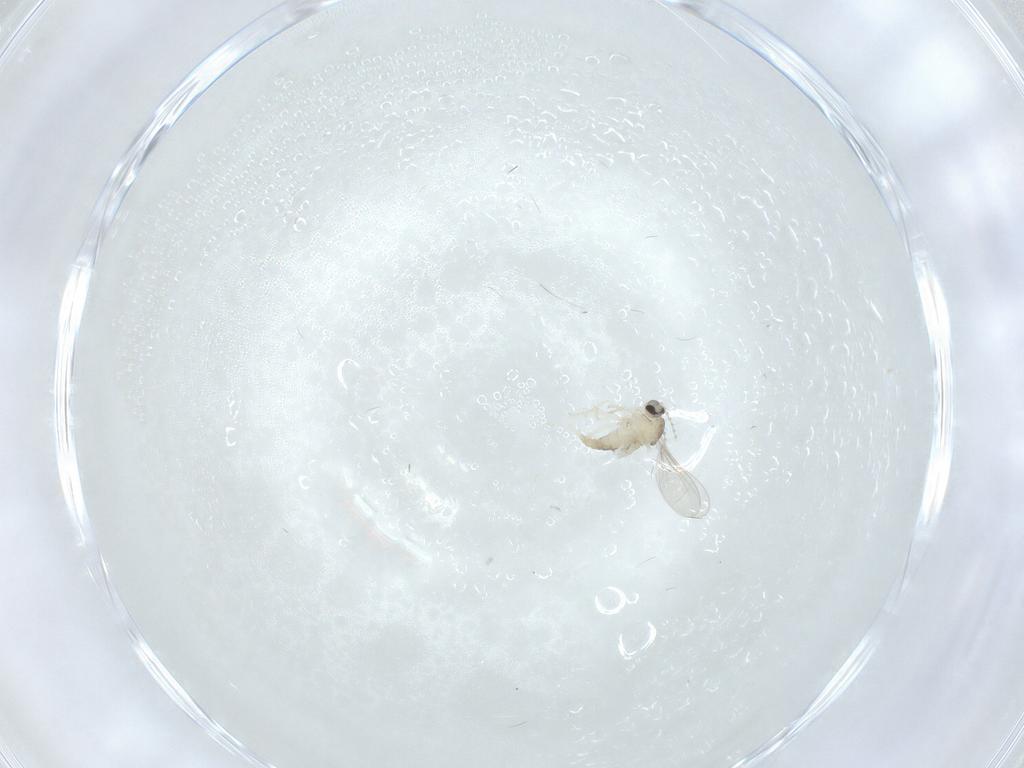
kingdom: Animalia
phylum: Arthropoda
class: Insecta
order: Diptera
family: Cecidomyiidae
